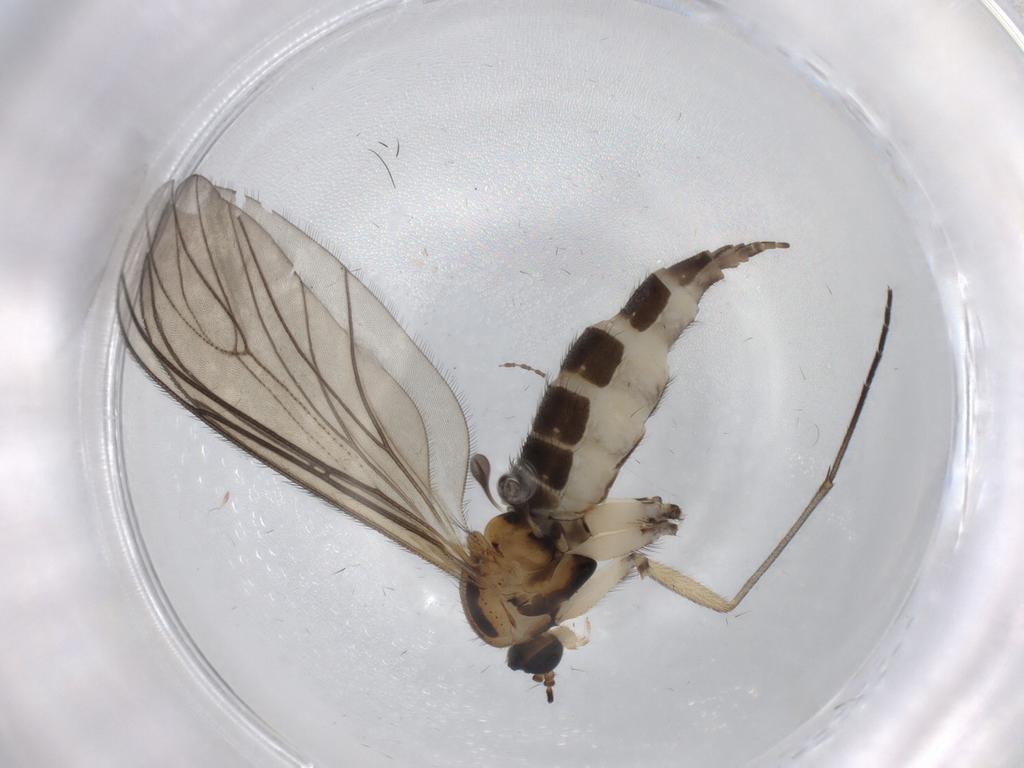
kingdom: Animalia
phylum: Arthropoda
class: Insecta
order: Diptera
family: Sciaridae
